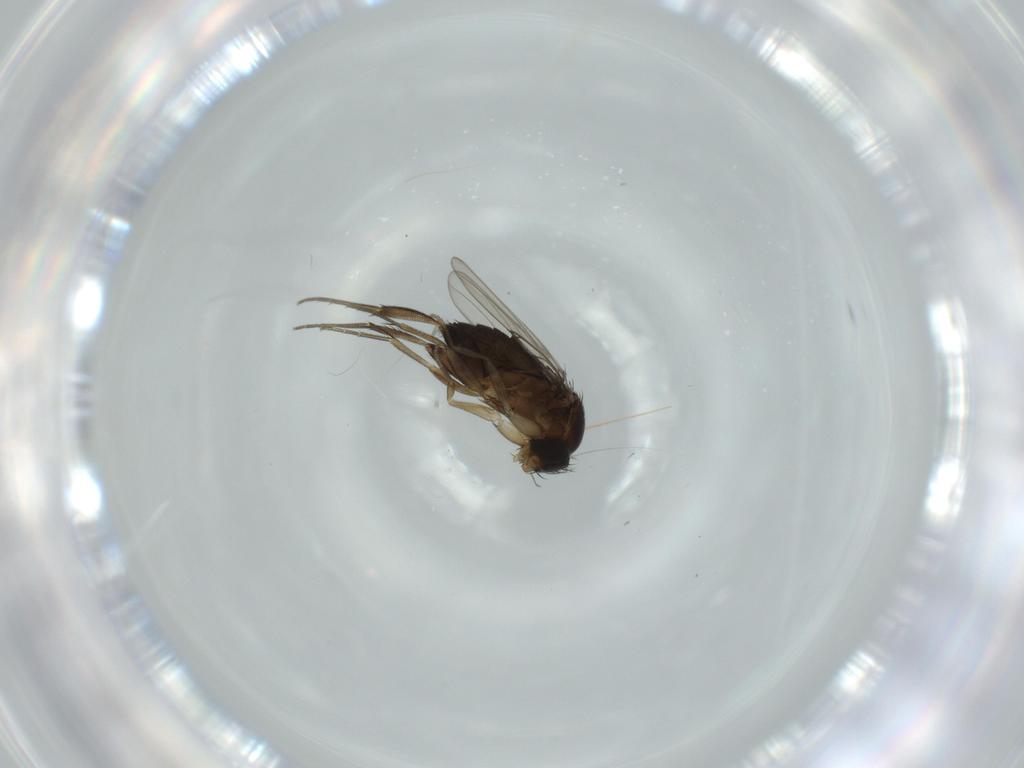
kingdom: Animalia
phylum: Arthropoda
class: Insecta
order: Diptera
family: Phoridae
